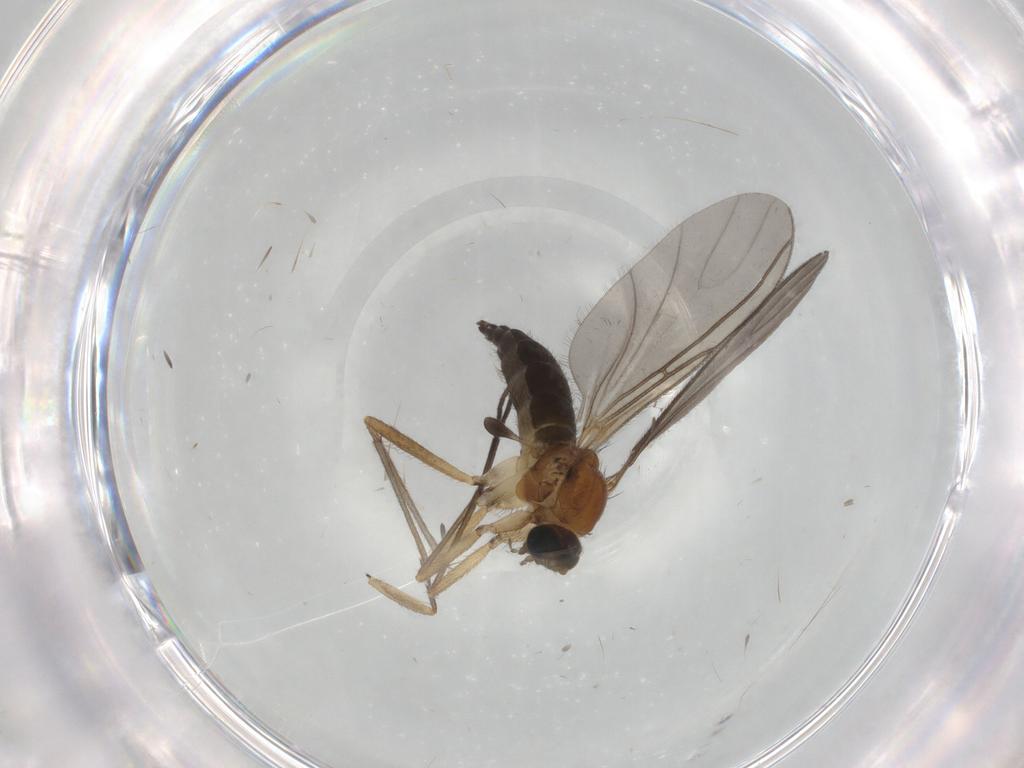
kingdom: Animalia
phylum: Arthropoda
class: Insecta
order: Diptera
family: Sciaridae
